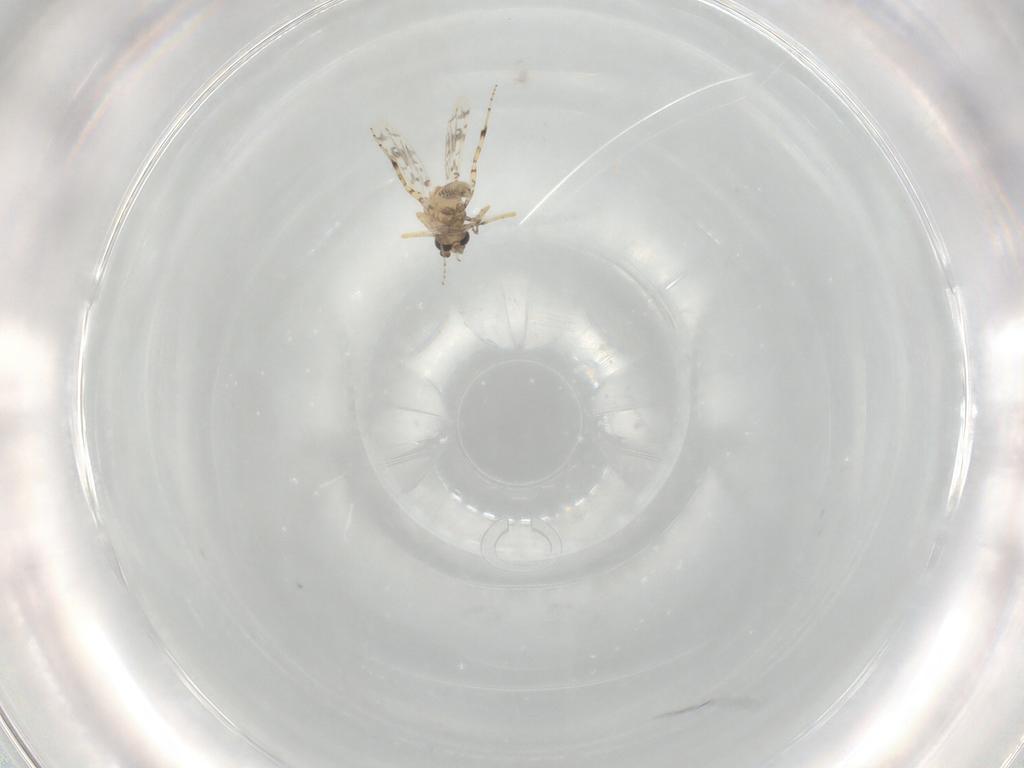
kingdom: Animalia
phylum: Arthropoda
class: Insecta
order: Diptera
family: Ceratopogonidae
